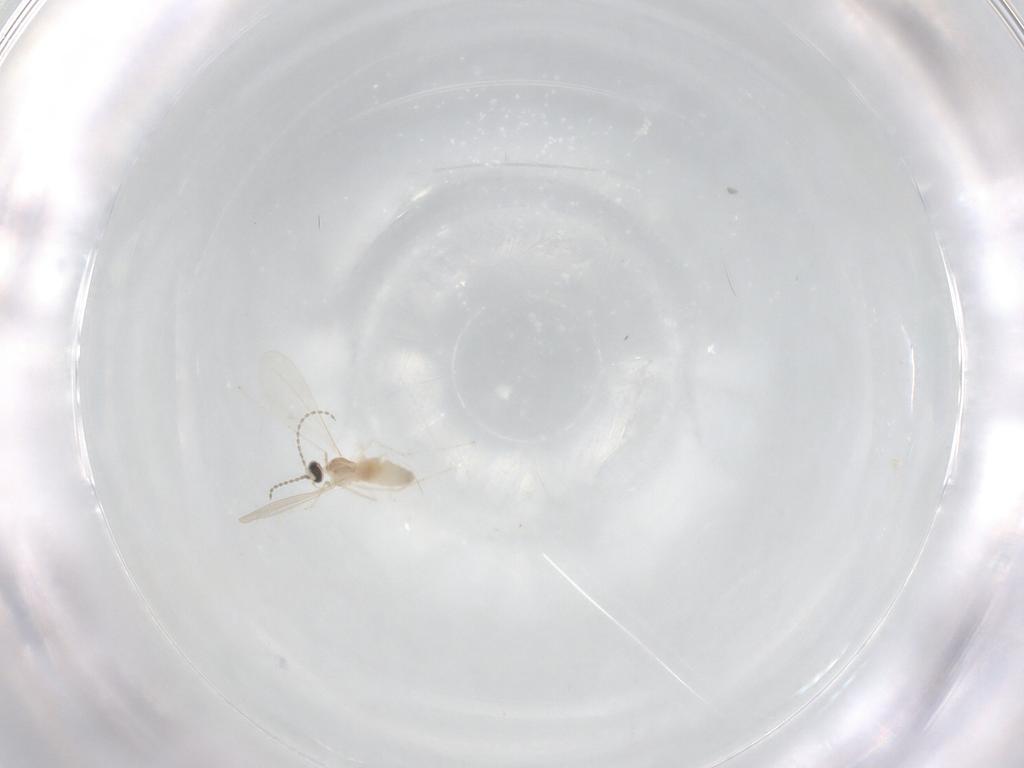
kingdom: Animalia
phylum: Arthropoda
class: Insecta
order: Diptera
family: Cecidomyiidae
